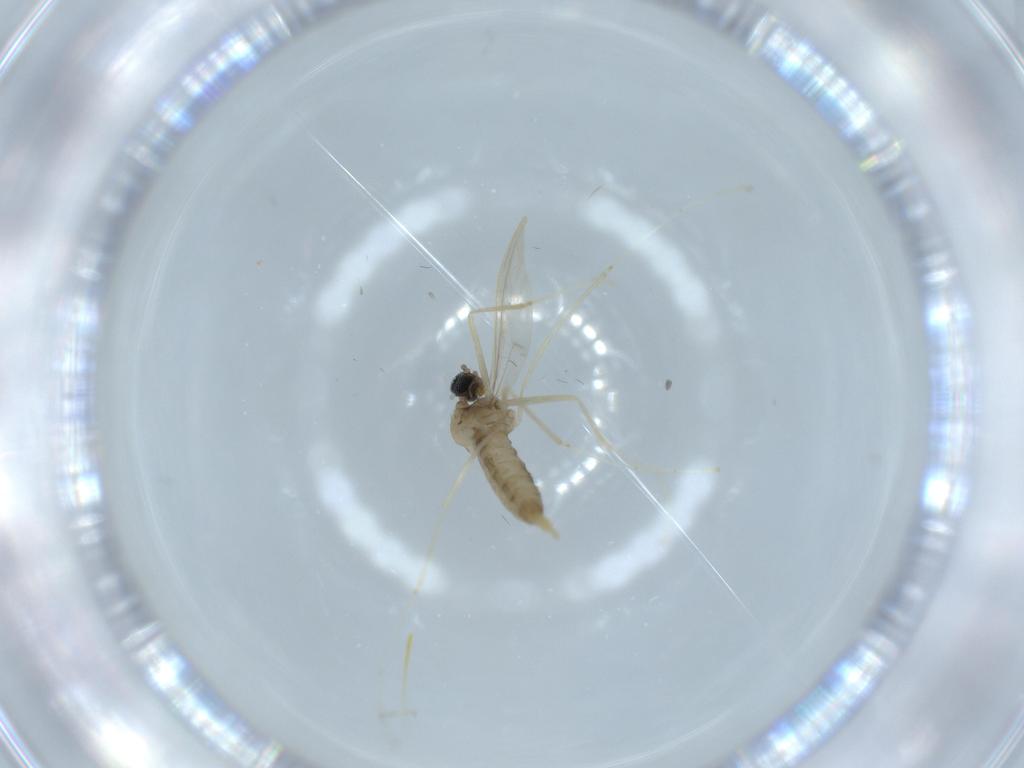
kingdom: Animalia
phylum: Arthropoda
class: Insecta
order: Diptera
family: Cecidomyiidae
